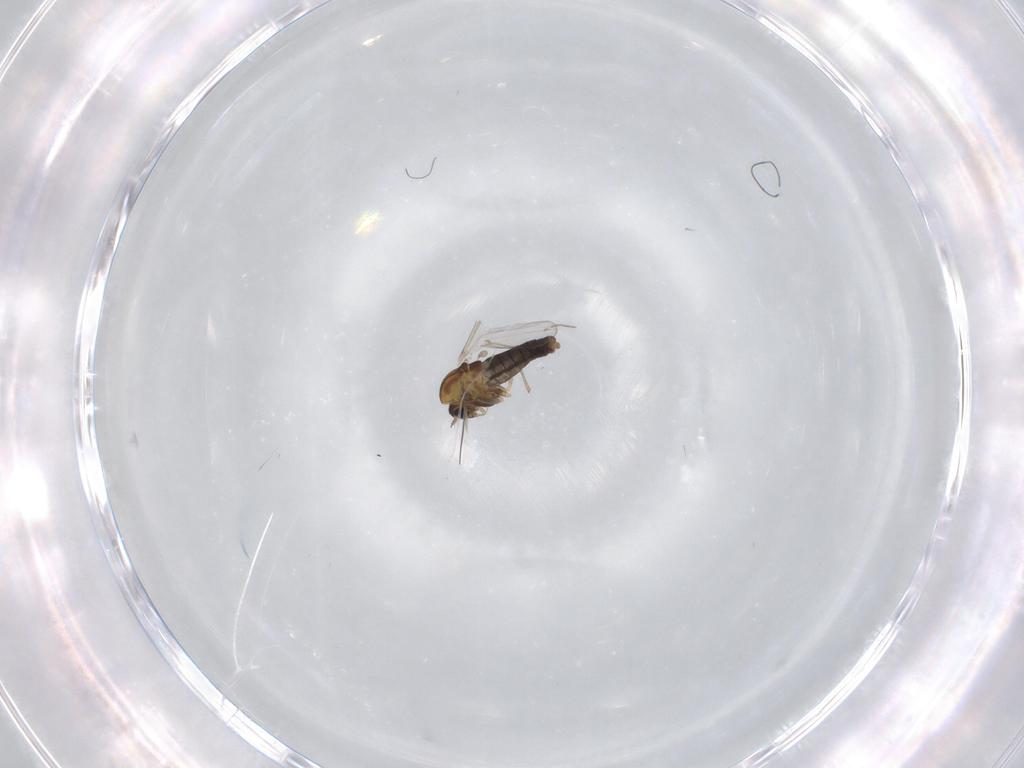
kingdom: Animalia
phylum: Arthropoda
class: Insecta
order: Diptera
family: Chironomidae
